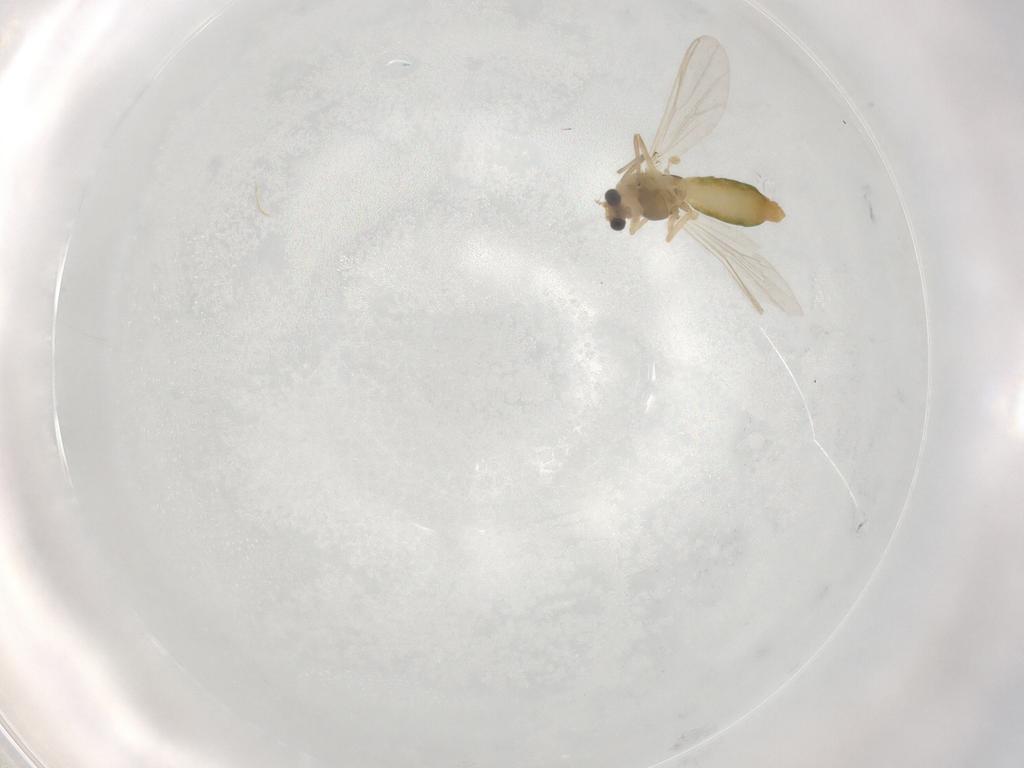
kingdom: Animalia
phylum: Arthropoda
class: Insecta
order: Diptera
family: Chironomidae
